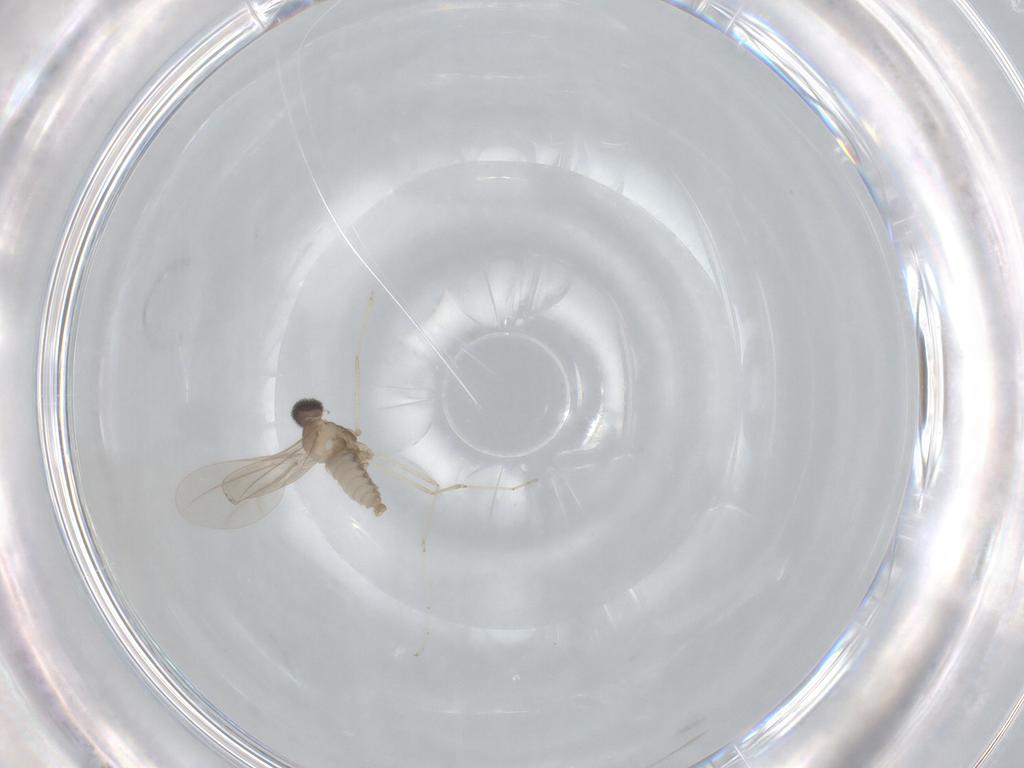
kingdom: Animalia
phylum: Arthropoda
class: Insecta
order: Diptera
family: Cecidomyiidae
